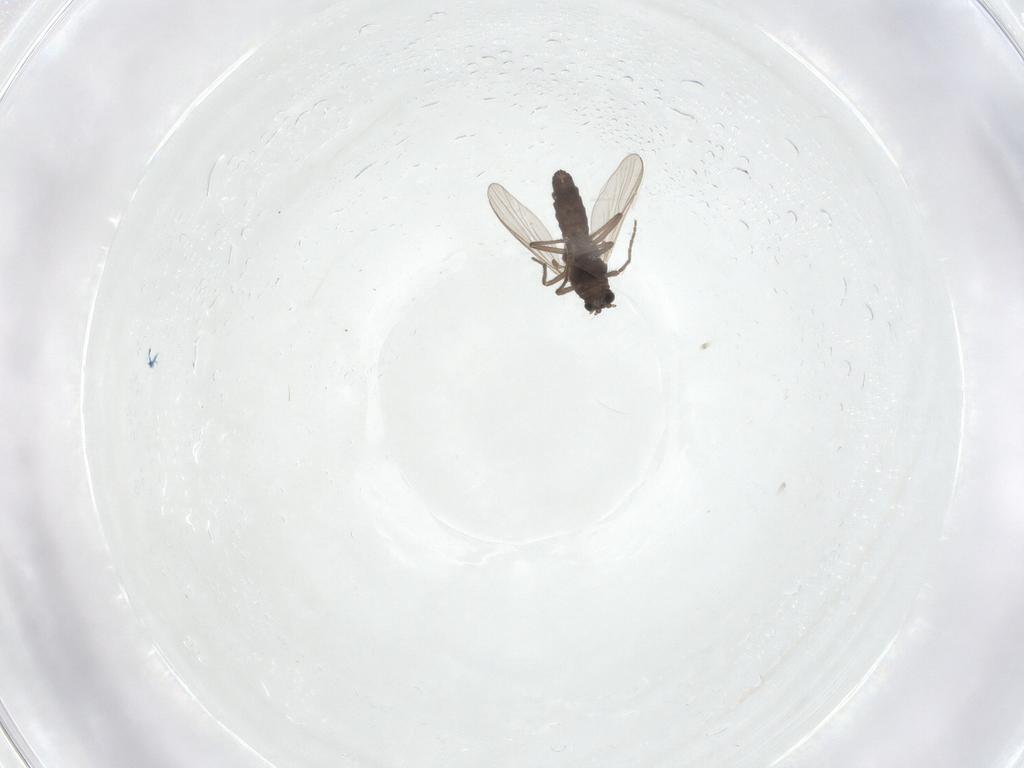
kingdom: Animalia
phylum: Arthropoda
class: Insecta
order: Diptera
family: Chironomidae
